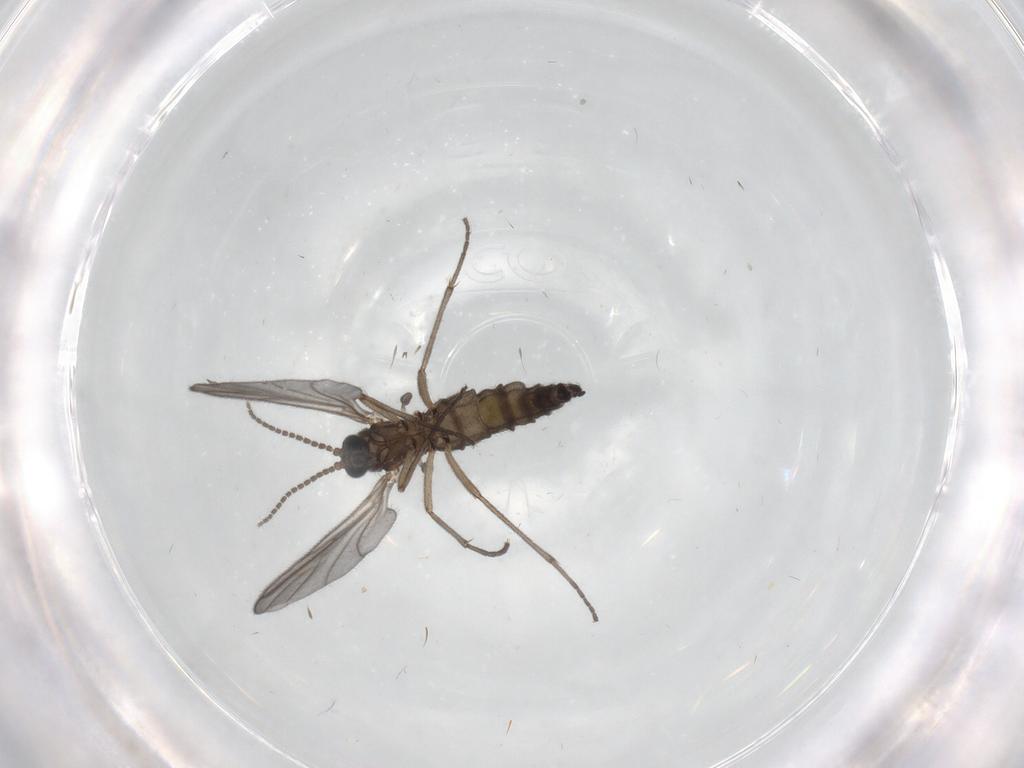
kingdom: Animalia
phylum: Arthropoda
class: Insecta
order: Diptera
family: Sciaridae
